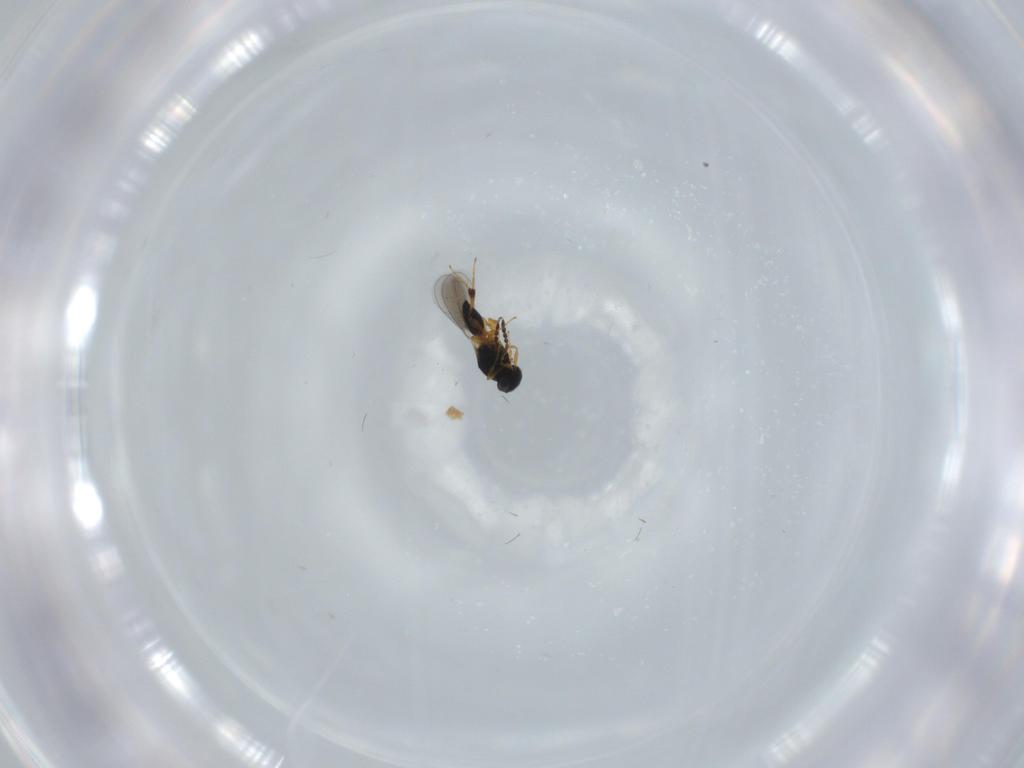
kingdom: Animalia
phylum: Arthropoda
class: Insecta
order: Hymenoptera
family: Platygastridae
